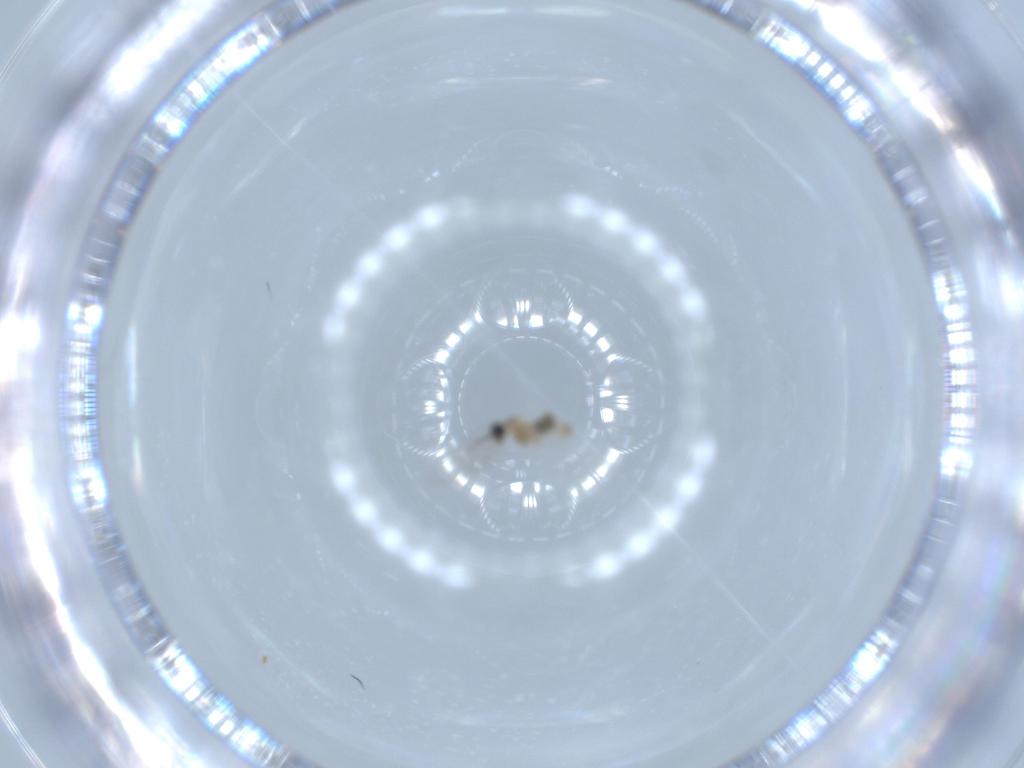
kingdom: Animalia
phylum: Arthropoda
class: Insecta
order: Diptera
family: Cecidomyiidae
